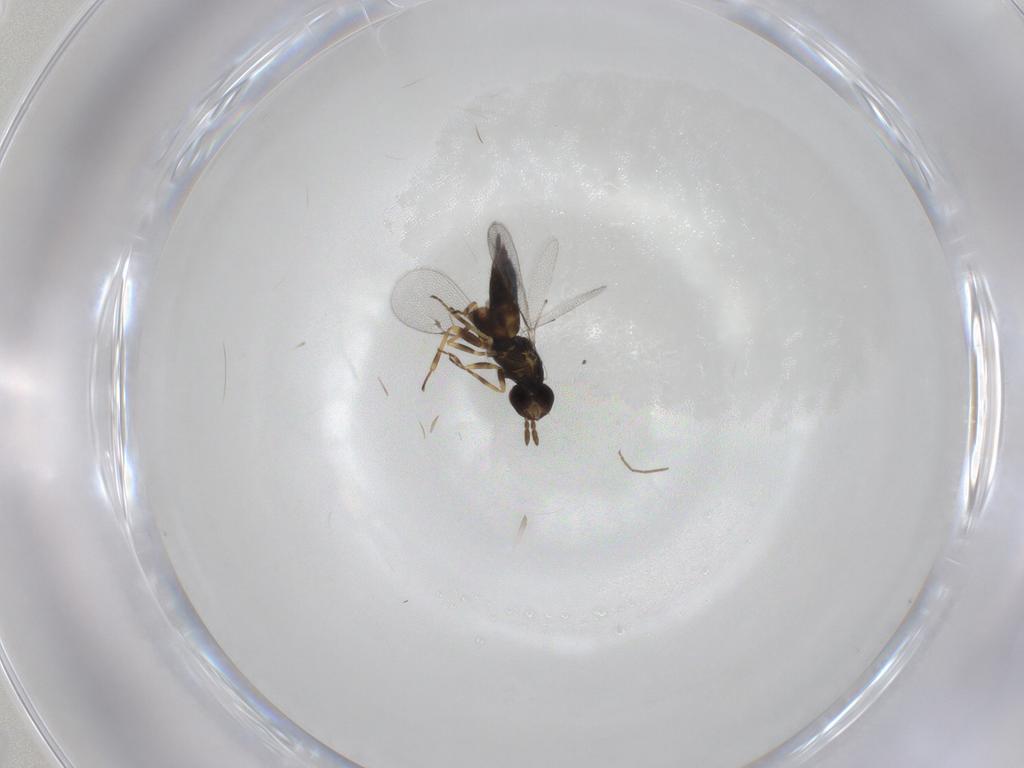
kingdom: Animalia
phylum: Arthropoda
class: Insecta
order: Hymenoptera
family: Eulophidae
